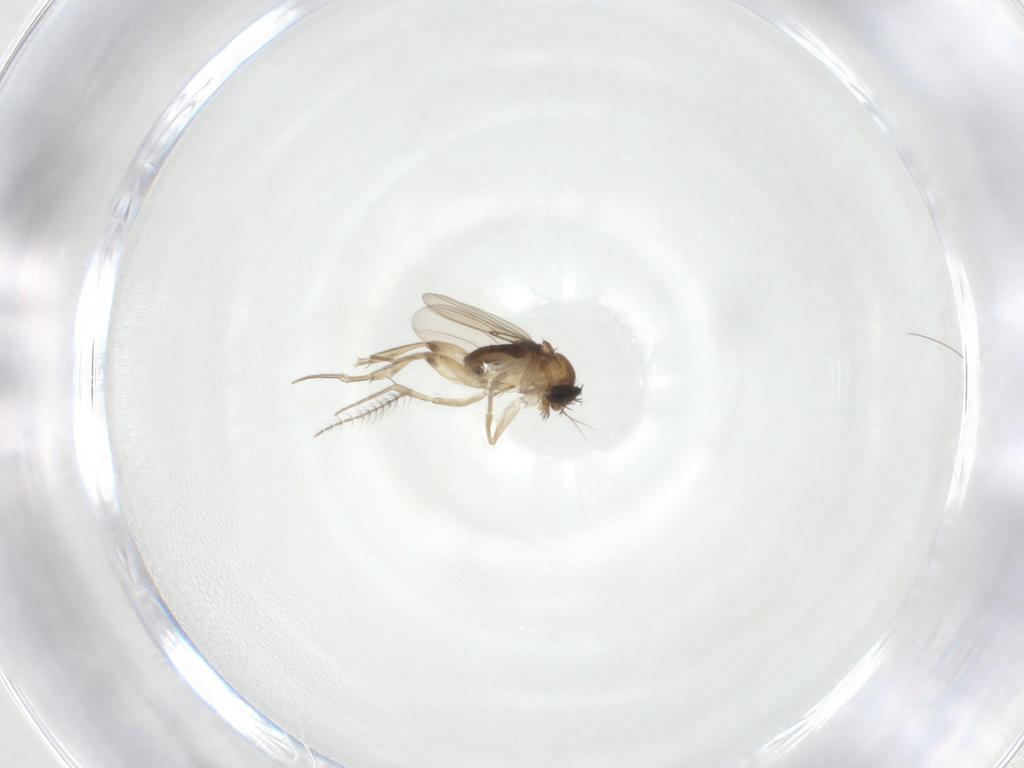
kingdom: Animalia
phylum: Arthropoda
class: Insecta
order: Diptera
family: Phoridae
